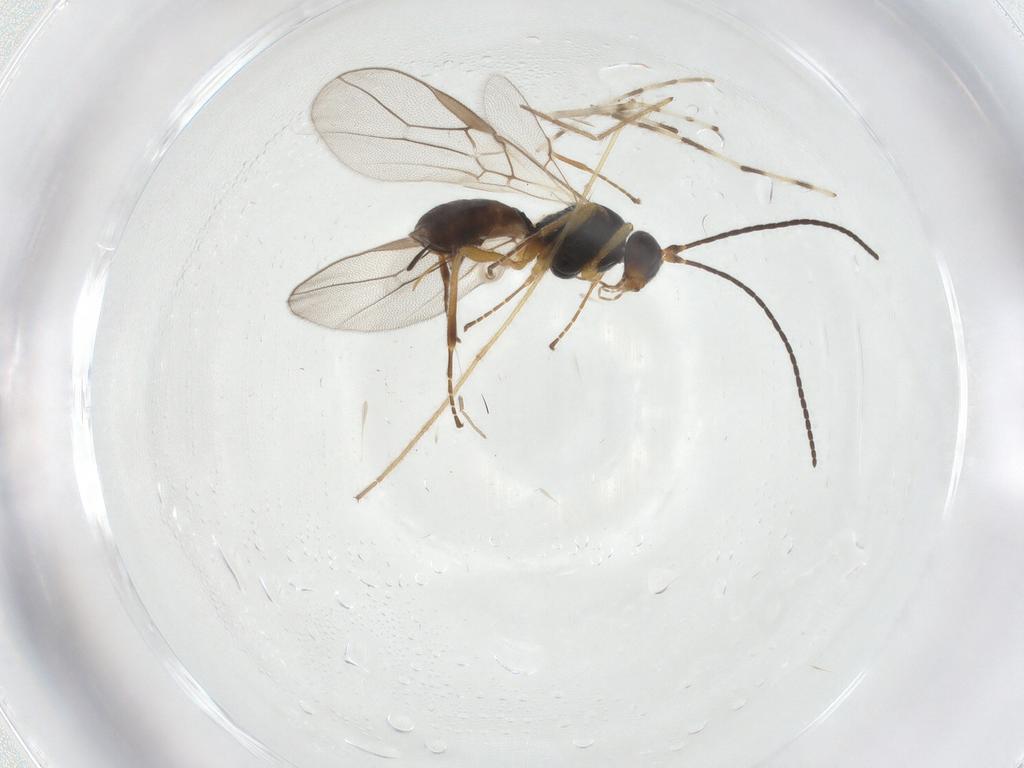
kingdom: Animalia
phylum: Arthropoda
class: Insecta
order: Hymenoptera
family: Braconidae
